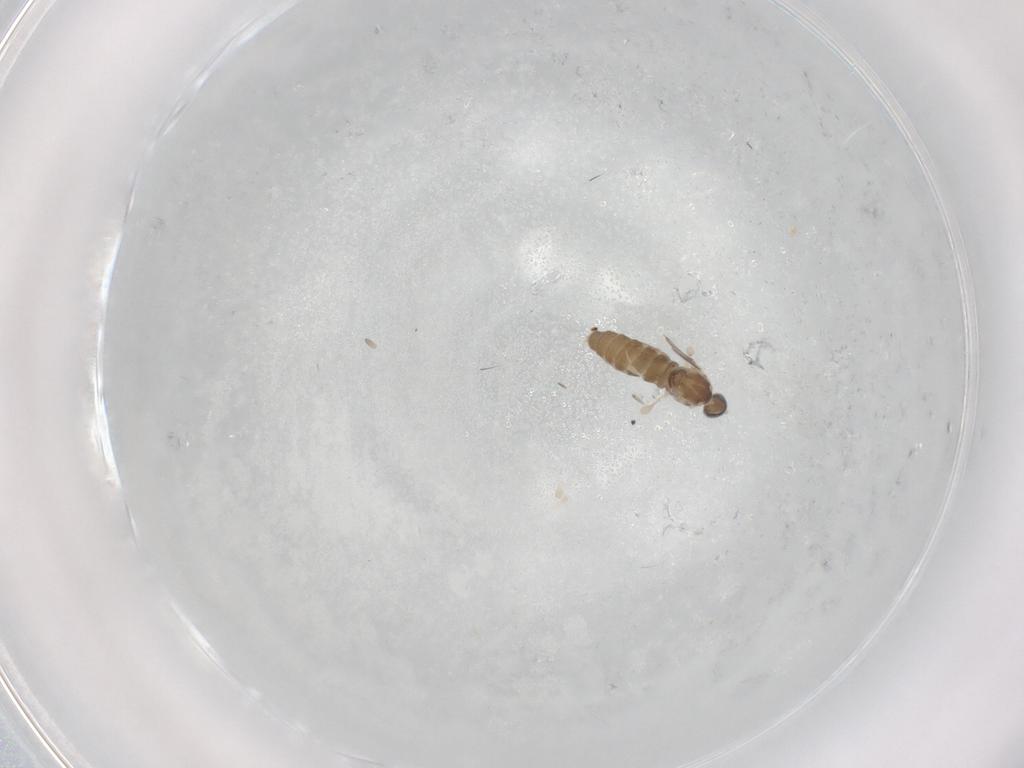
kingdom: Animalia
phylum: Arthropoda
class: Insecta
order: Diptera
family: Cecidomyiidae
